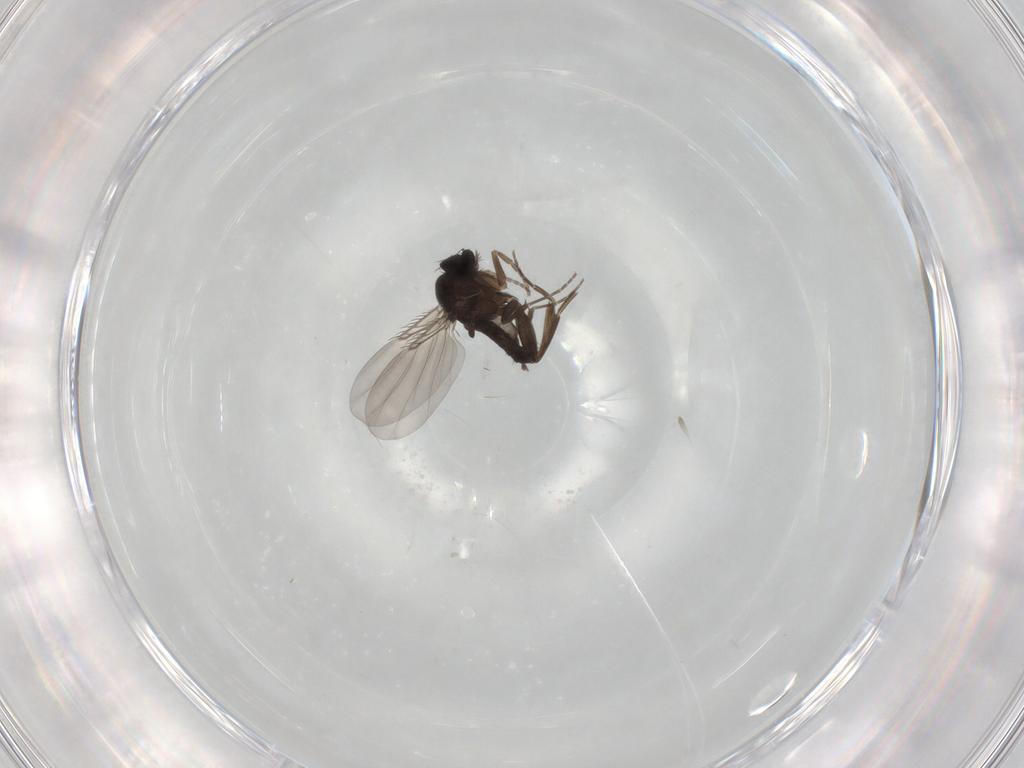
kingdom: Animalia
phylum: Arthropoda
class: Insecta
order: Diptera
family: Phoridae
